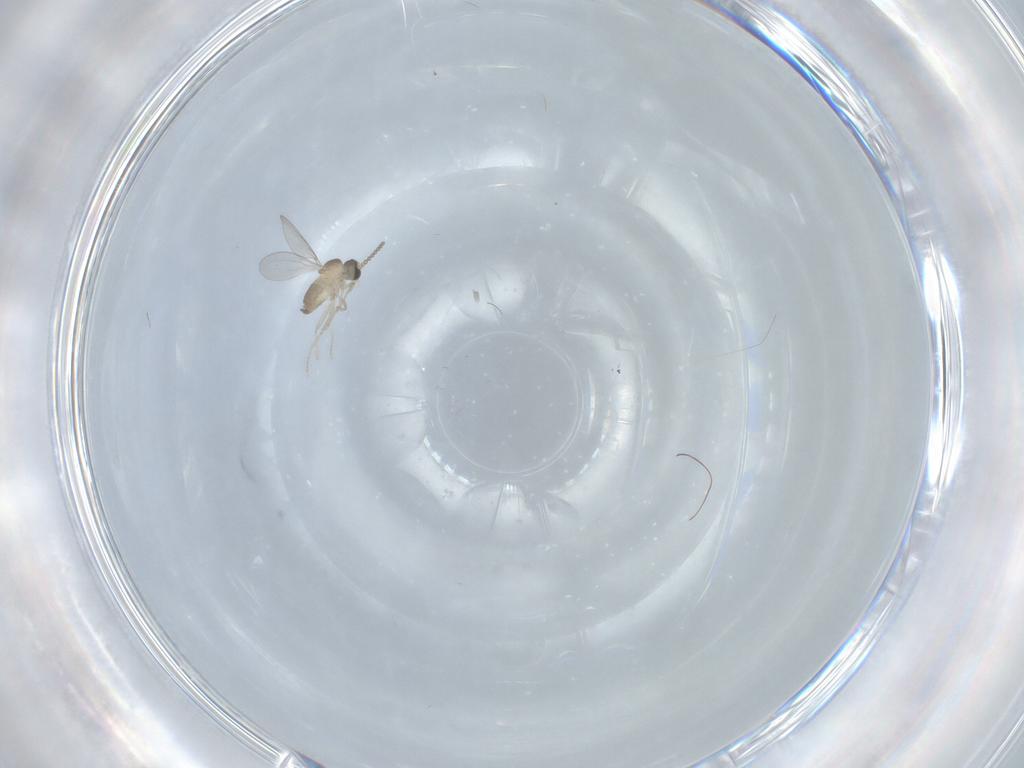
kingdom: Animalia
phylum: Arthropoda
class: Insecta
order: Diptera
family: Cecidomyiidae
